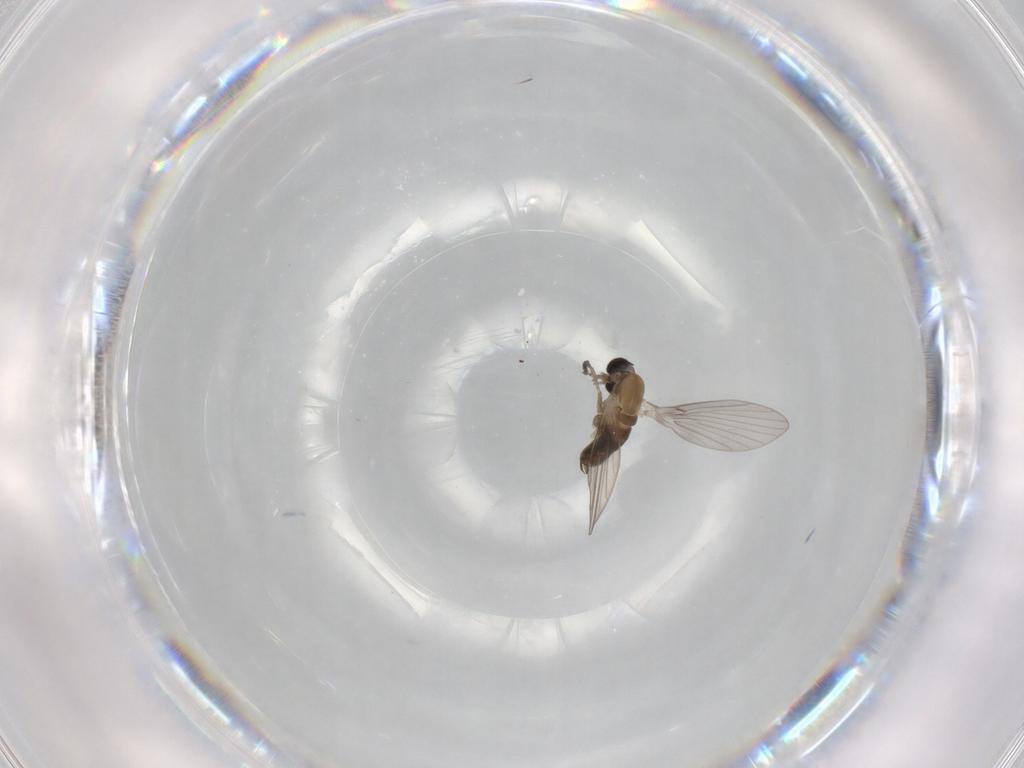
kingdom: Animalia
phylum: Arthropoda
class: Insecta
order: Diptera
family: Psychodidae
